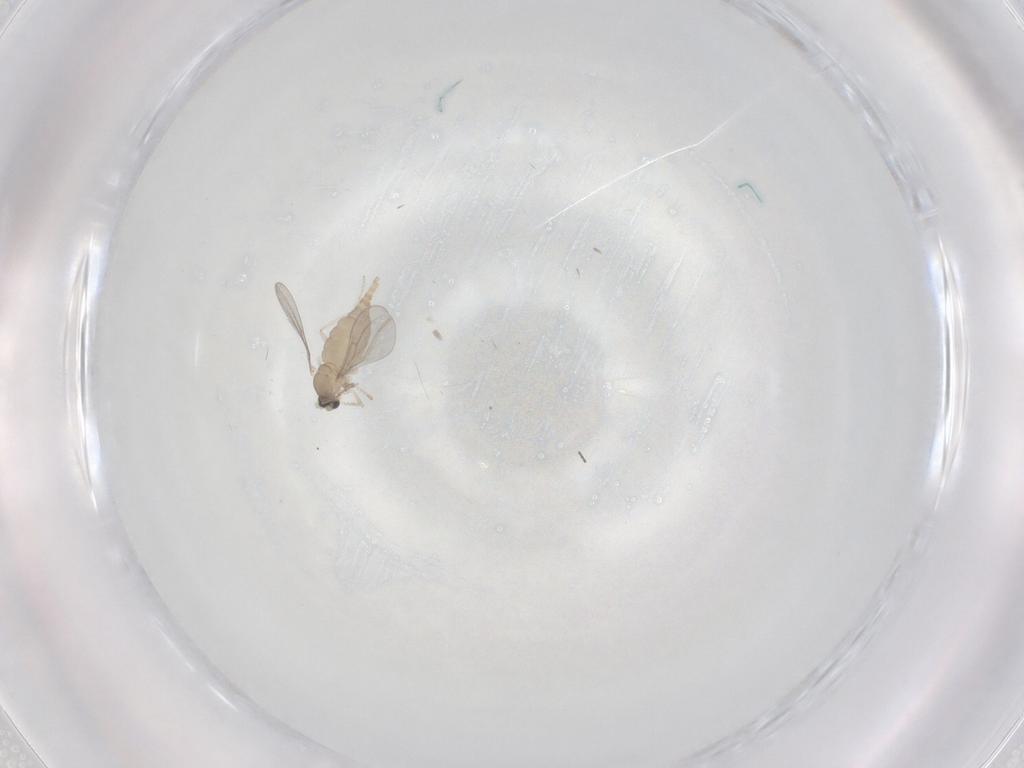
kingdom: Animalia
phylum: Arthropoda
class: Insecta
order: Diptera
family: Cecidomyiidae
